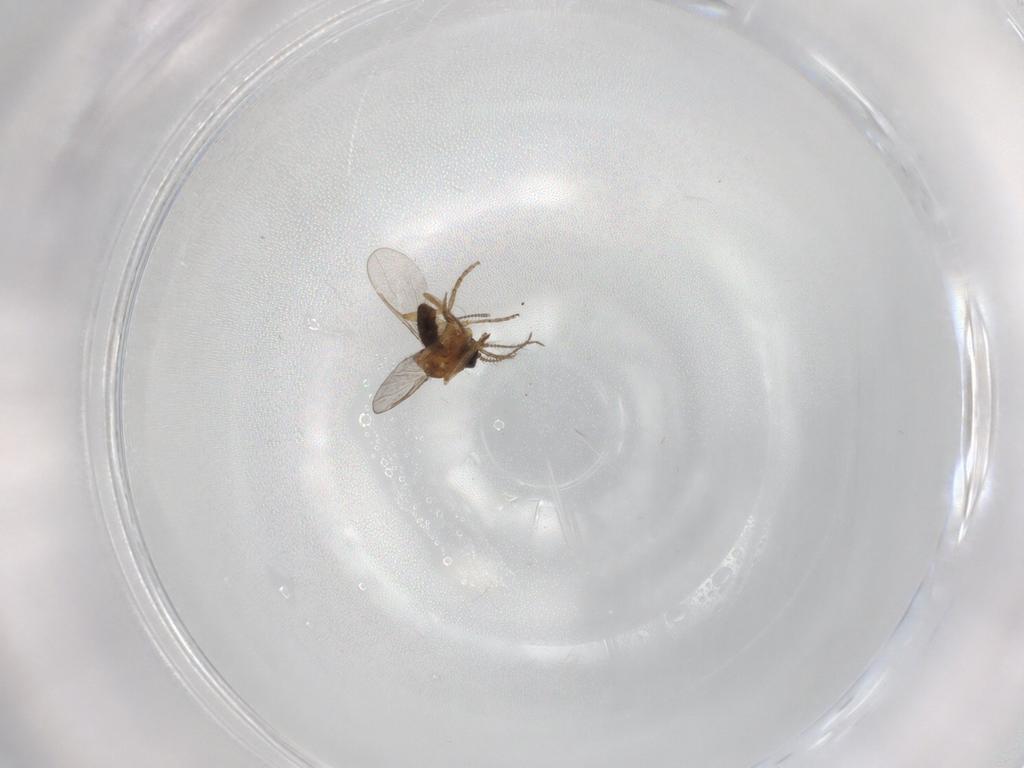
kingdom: Animalia
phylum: Arthropoda
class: Insecta
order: Diptera
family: Ceratopogonidae
